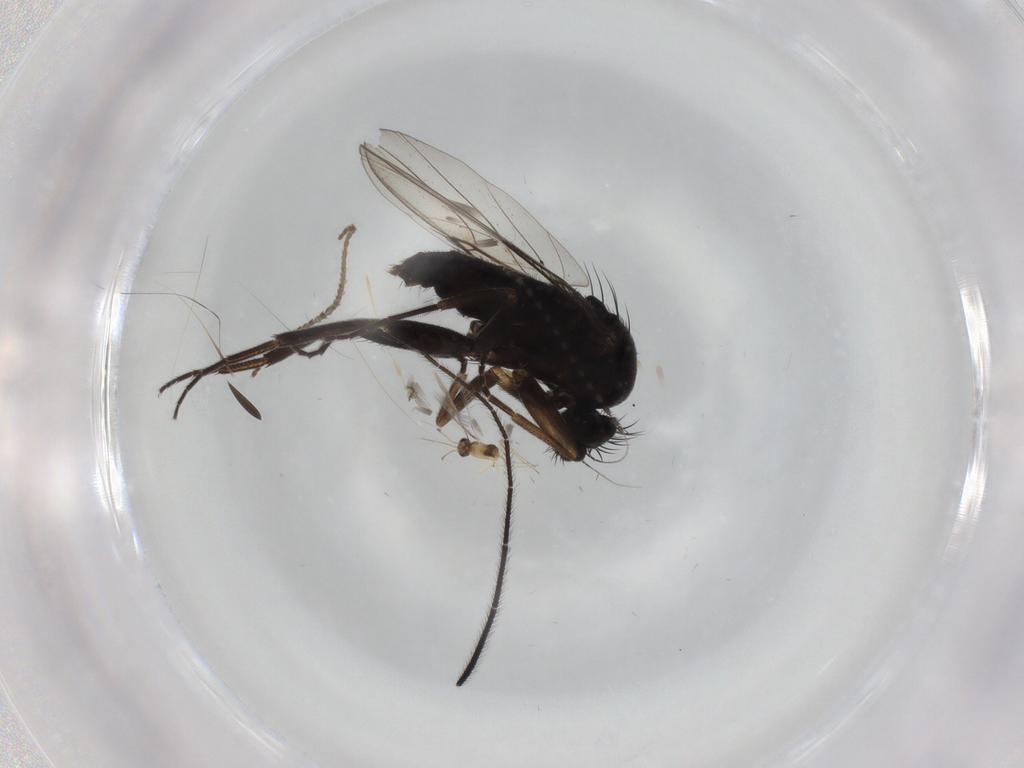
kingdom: Animalia
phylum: Arthropoda
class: Insecta
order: Diptera
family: Phoridae
